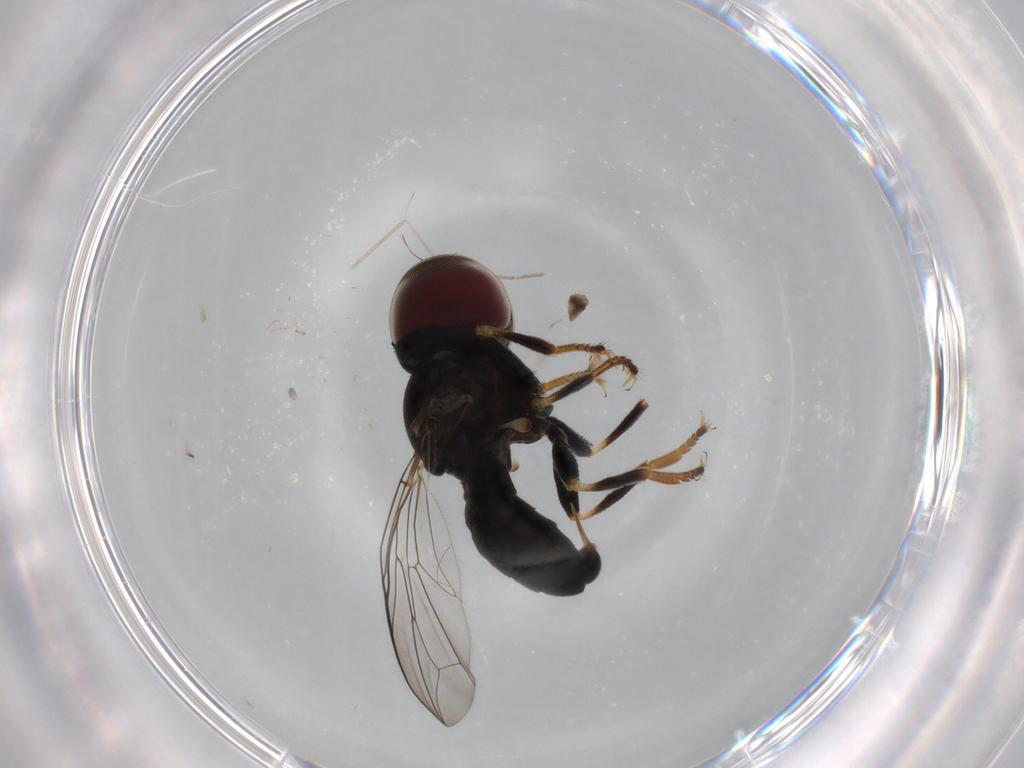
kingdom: Animalia
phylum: Arthropoda
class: Insecta
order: Diptera
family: Pipunculidae
